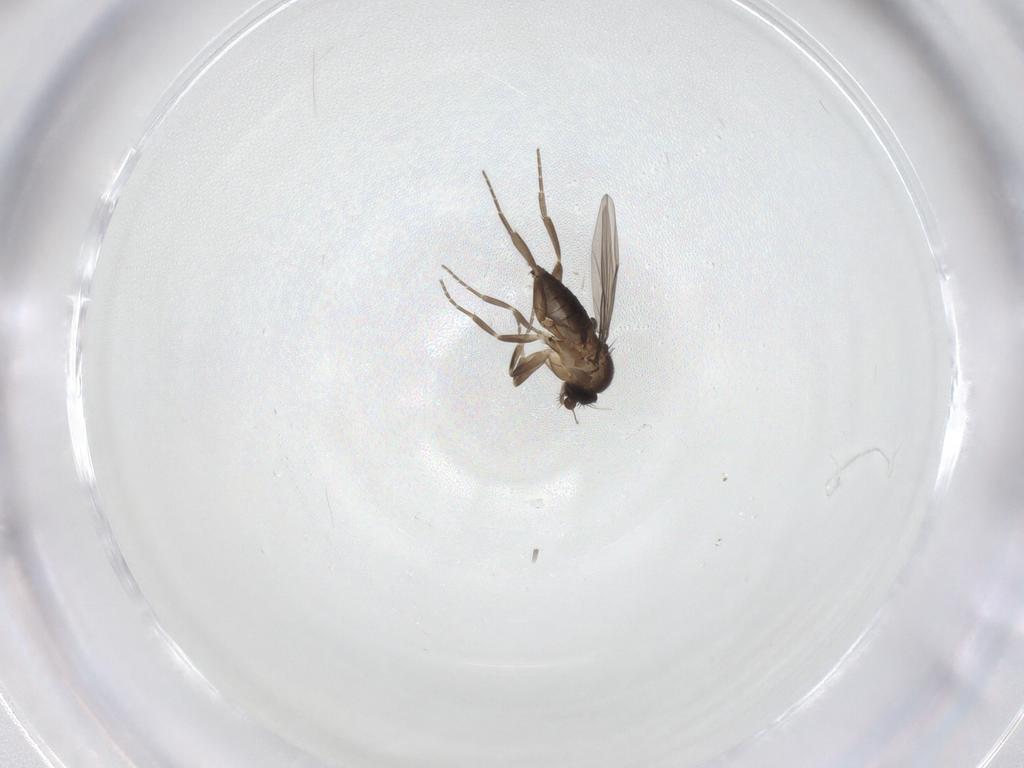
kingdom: Animalia
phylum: Arthropoda
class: Insecta
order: Diptera
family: Phoridae
